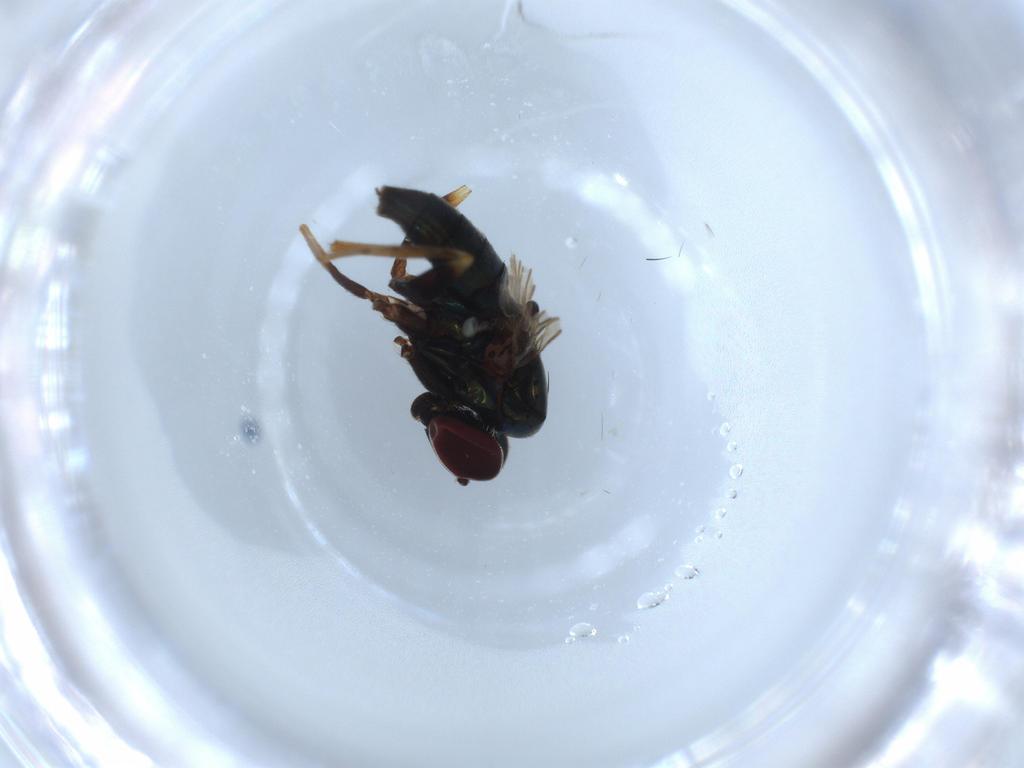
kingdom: Animalia
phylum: Arthropoda
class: Insecta
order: Diptera
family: Dolichopodidae
